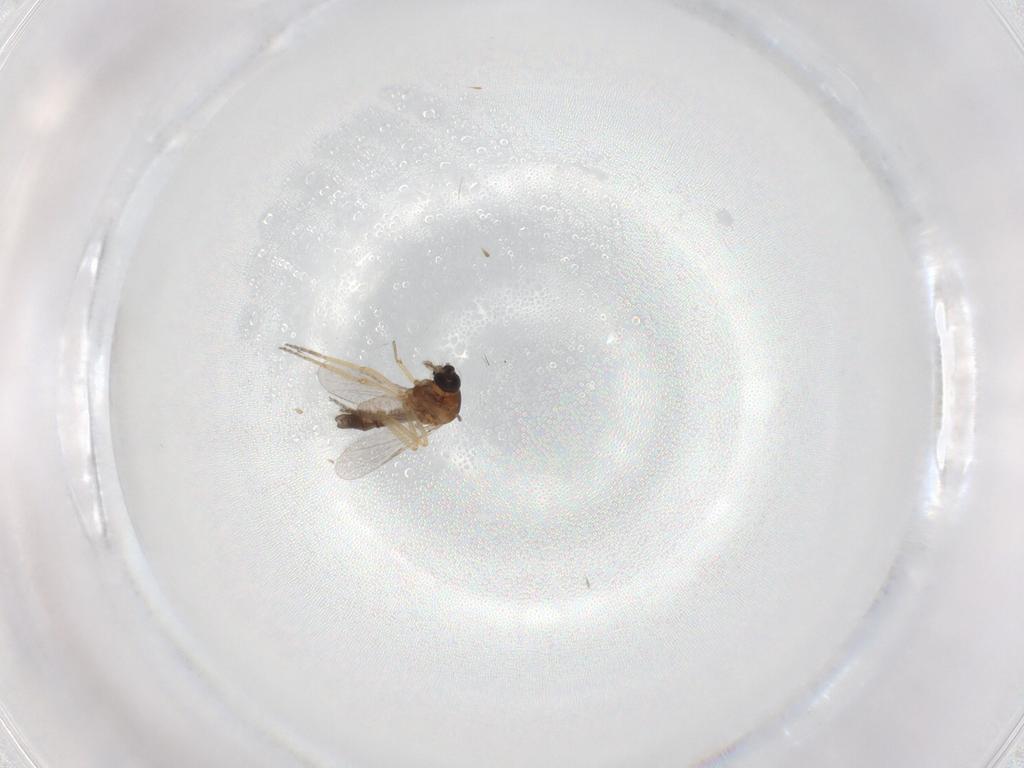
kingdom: Animalia
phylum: Arthropoda
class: Insecta
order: Diptera
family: Ceratopogonidae
